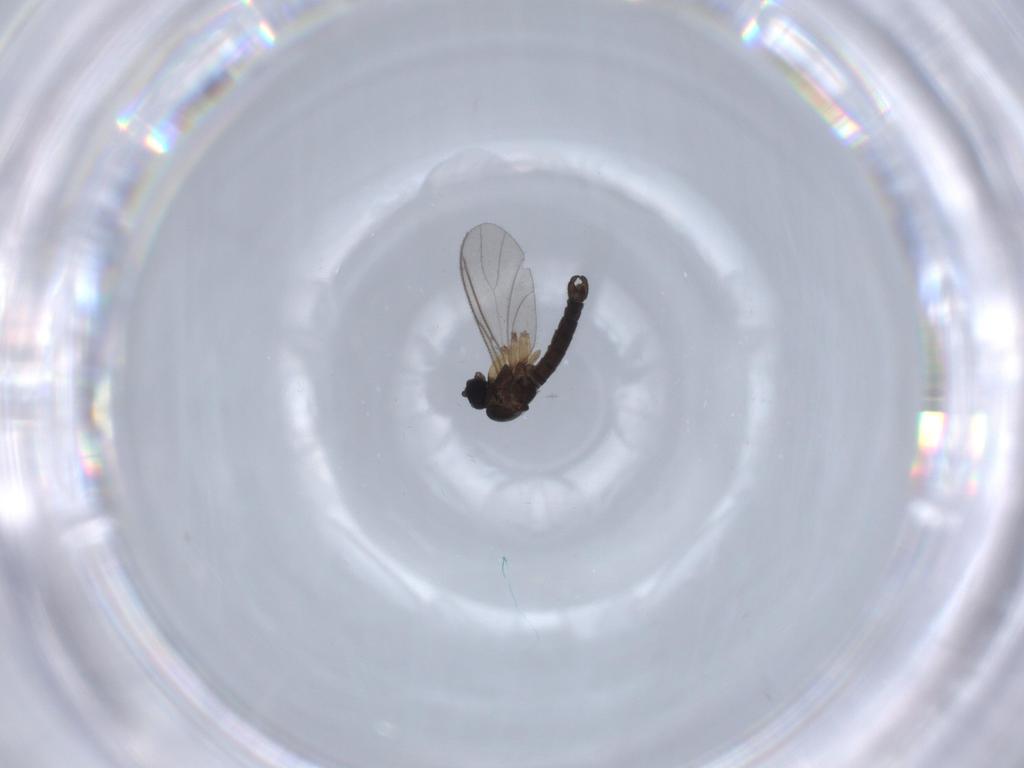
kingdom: Animalia
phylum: Arthropoda
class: Insecta
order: Diptera
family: Sciaridae
